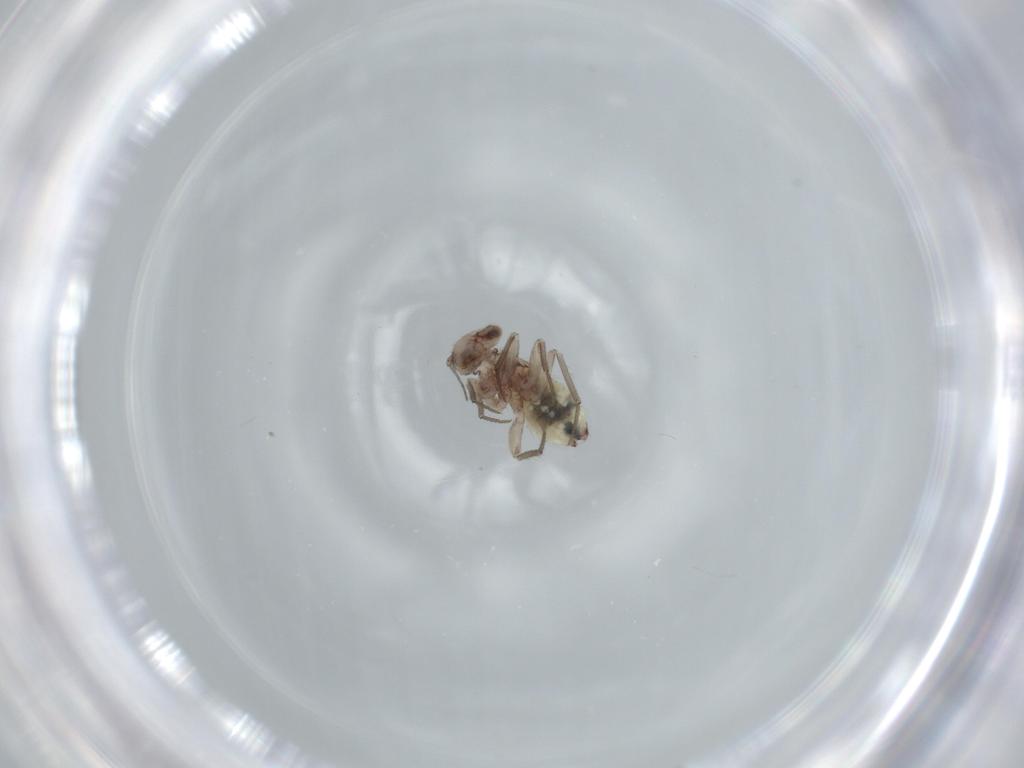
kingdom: Animalia
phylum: Arthropoda
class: Insecta
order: Psocodea
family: Lepidopsocidae
